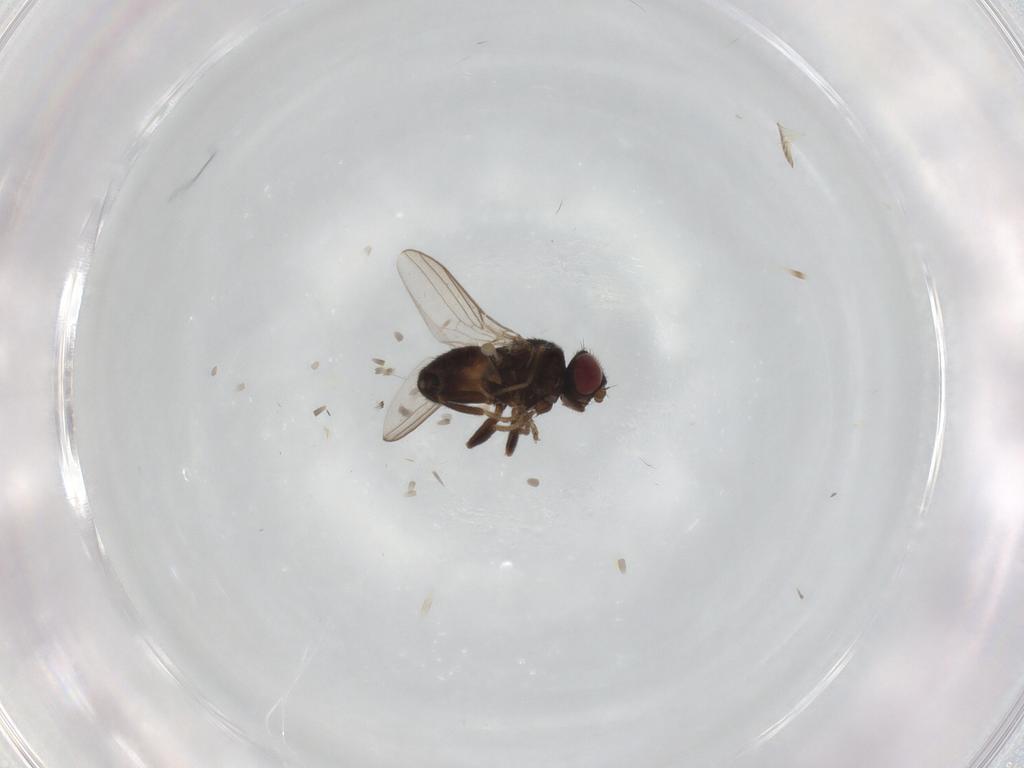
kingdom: Animalia
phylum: Arthropoda
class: Insecta
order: Diptera
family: Chloropidae
